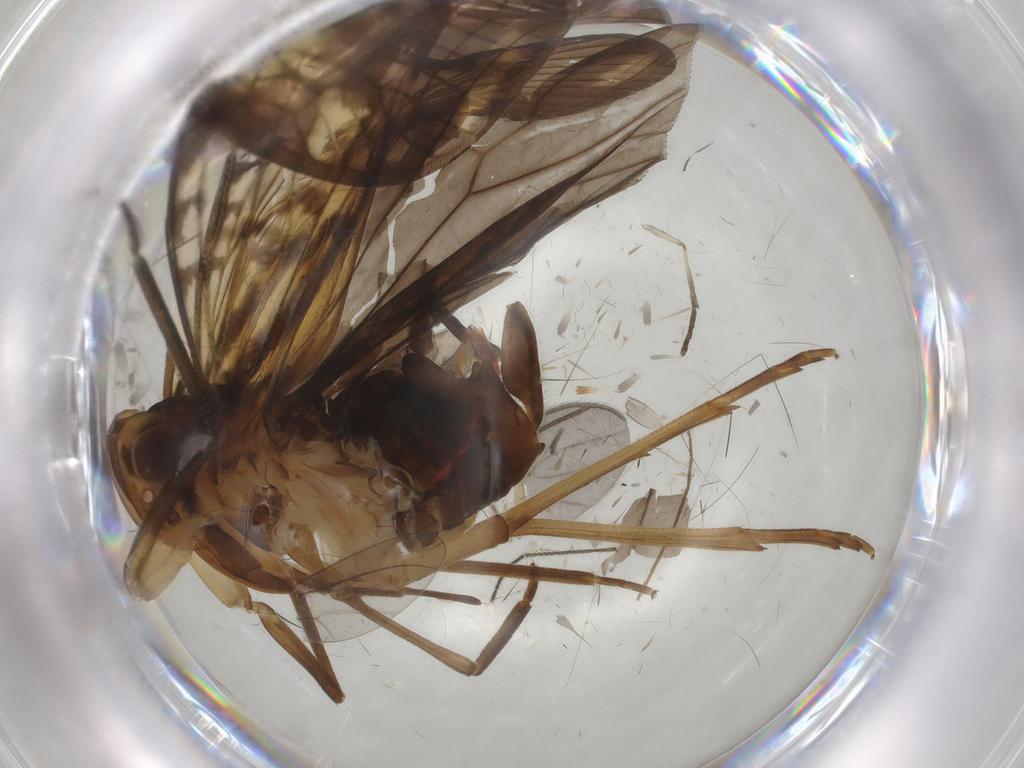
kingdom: Animalia
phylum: Arthropoda
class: Insecta
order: Hemiptera
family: Cixiidae
